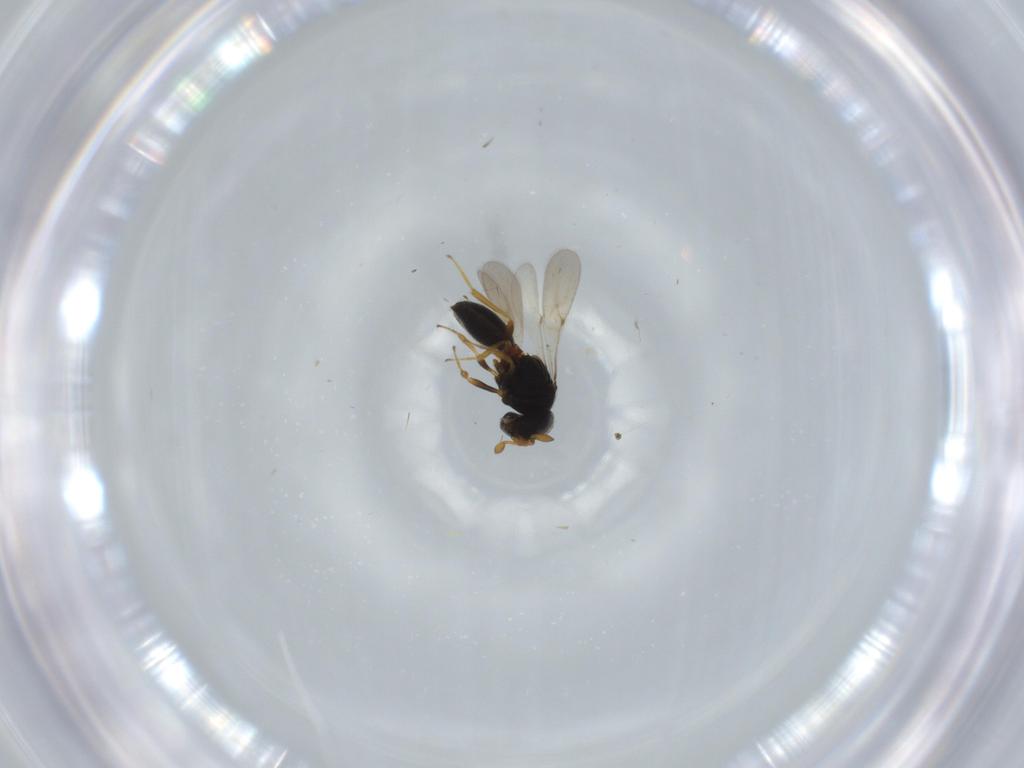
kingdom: Animalia
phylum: Arthropoda
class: Insecta
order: Hymenoptera
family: Scelionidae
